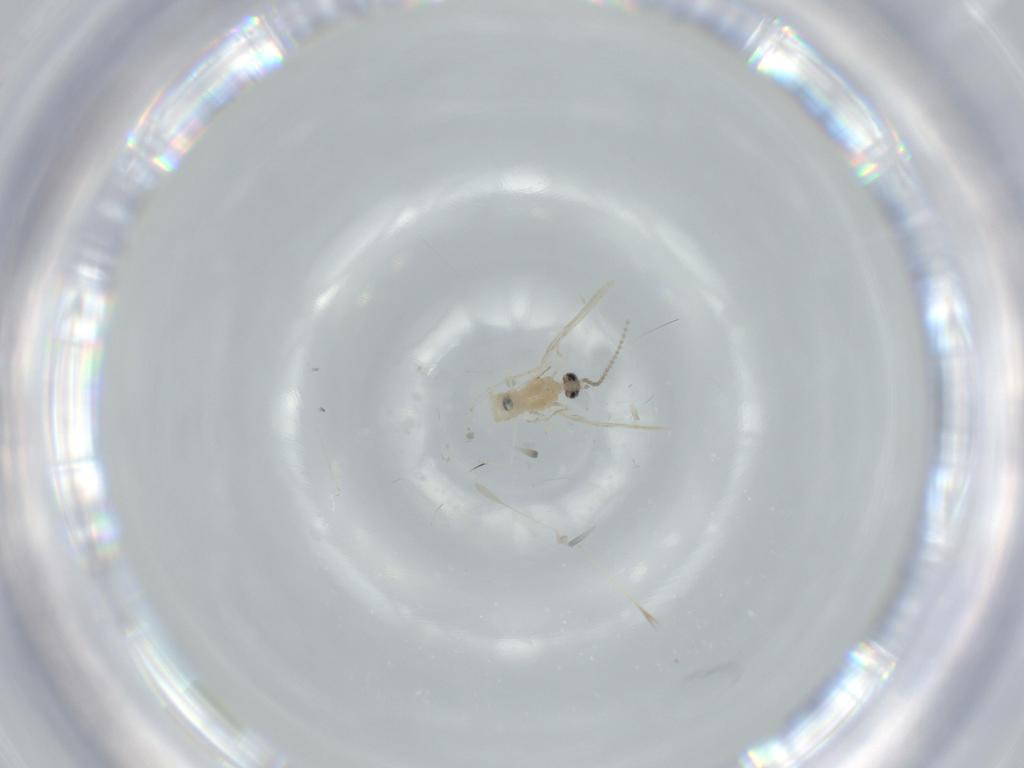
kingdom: Animalia
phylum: Arthropoda
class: Insecta
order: Diptera
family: Cecidomyiidae
